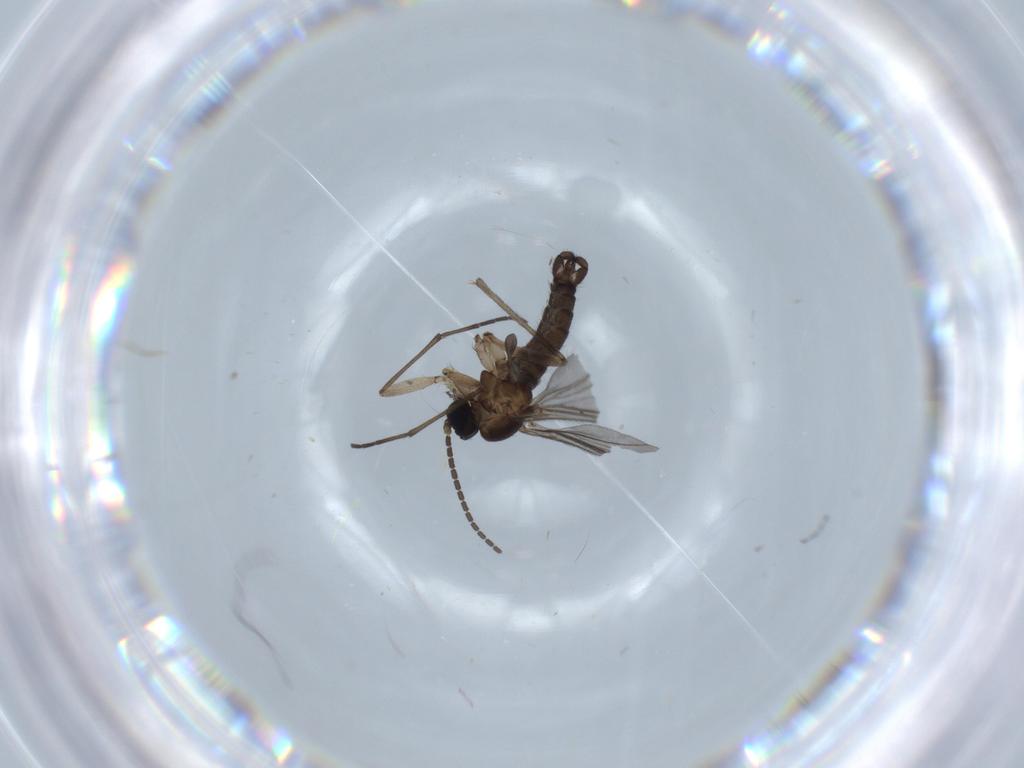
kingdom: Animalia
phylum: Arthropoda
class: Insecta
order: Diptera
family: Sciaridae
